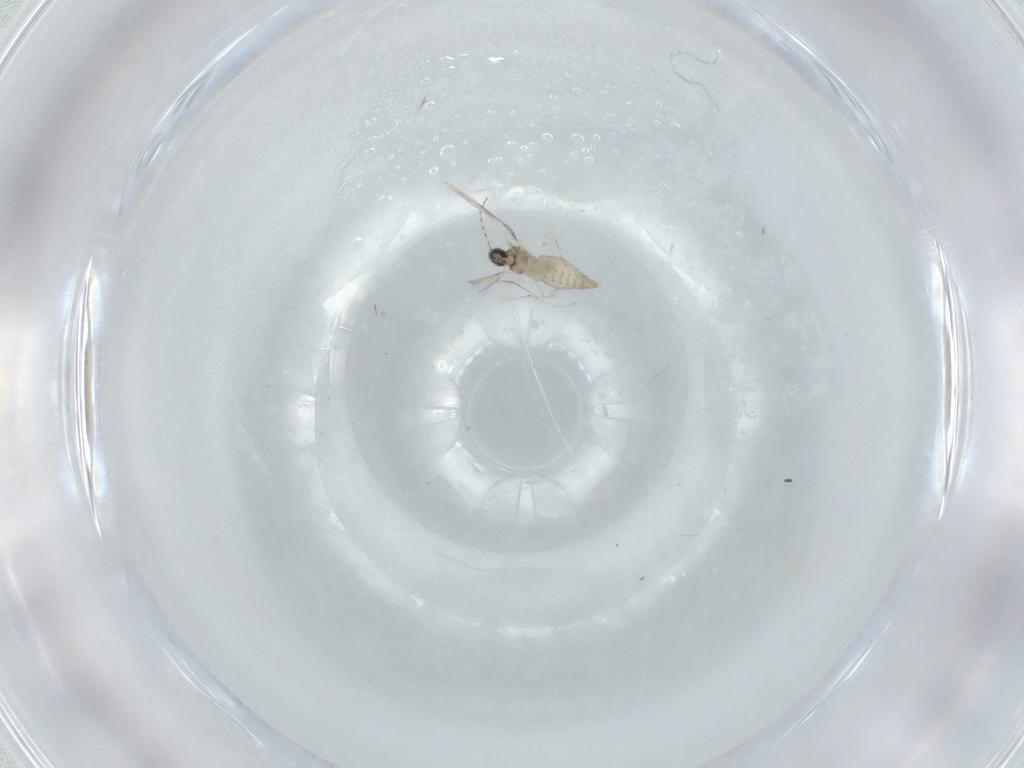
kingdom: Animalia
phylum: Arthropoda
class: Insecta
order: Diptera
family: Cecidomyiidae
